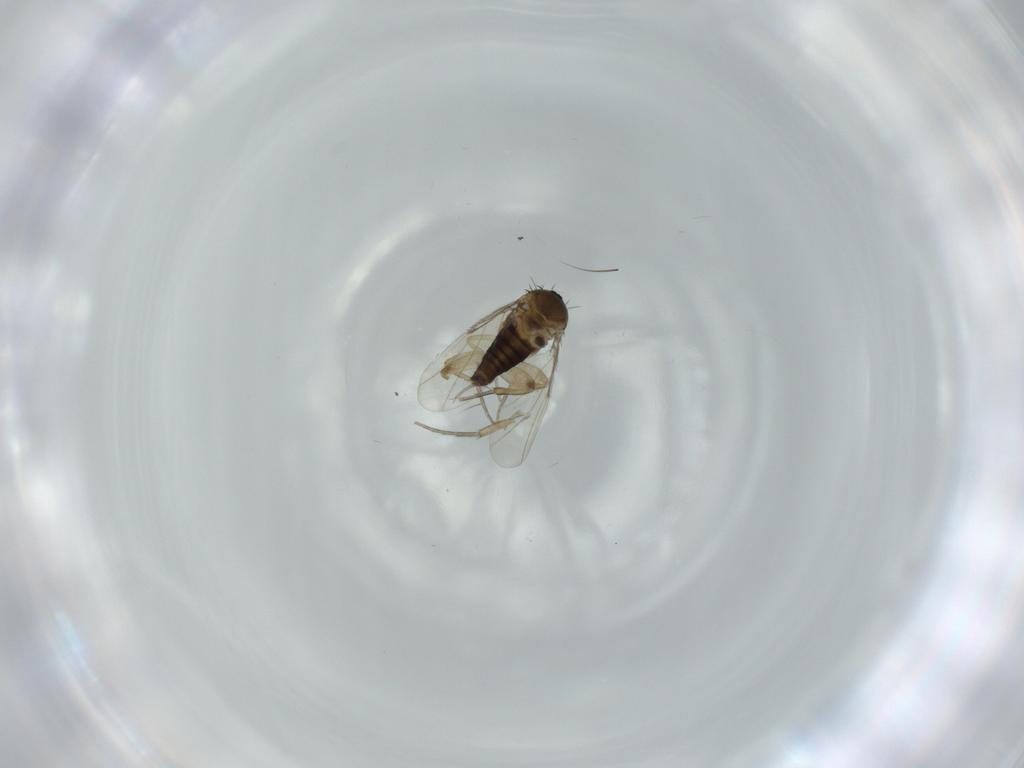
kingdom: Animalia
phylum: Arthropoda
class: Insecta
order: Diptera
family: Phoridae
